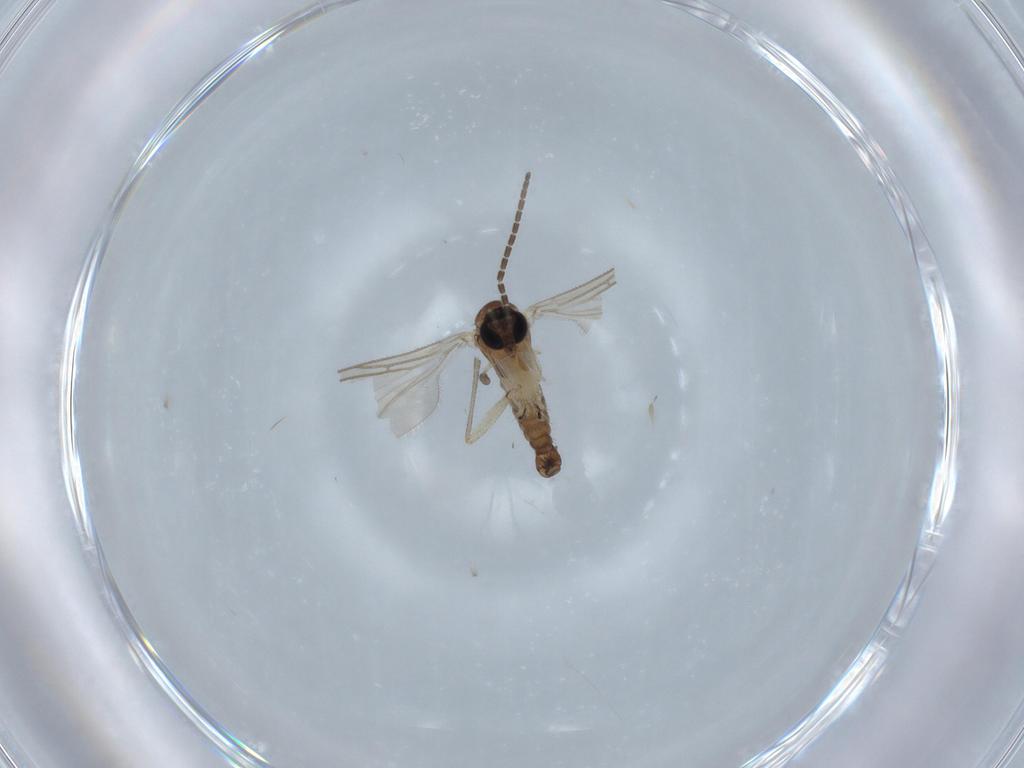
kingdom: Animalia
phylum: Arthropoda
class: Insecta
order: Diptera
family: Sciaridae
